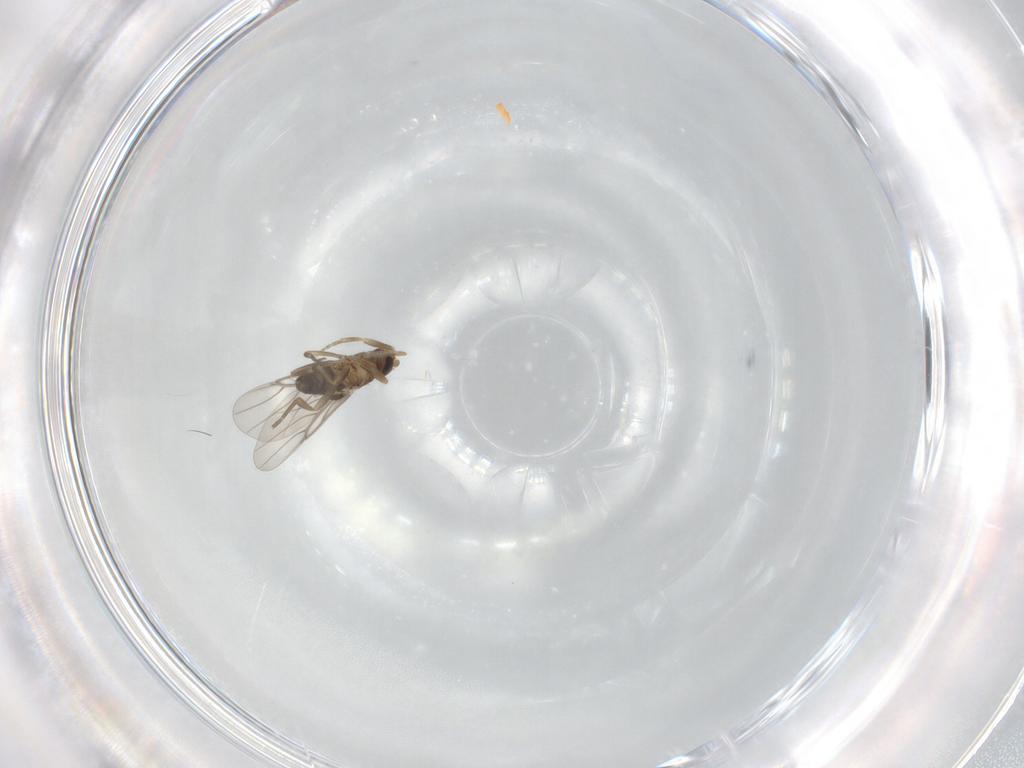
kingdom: Animalia
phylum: Arthropoda
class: Insecta
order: Diptera
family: Phoridae
